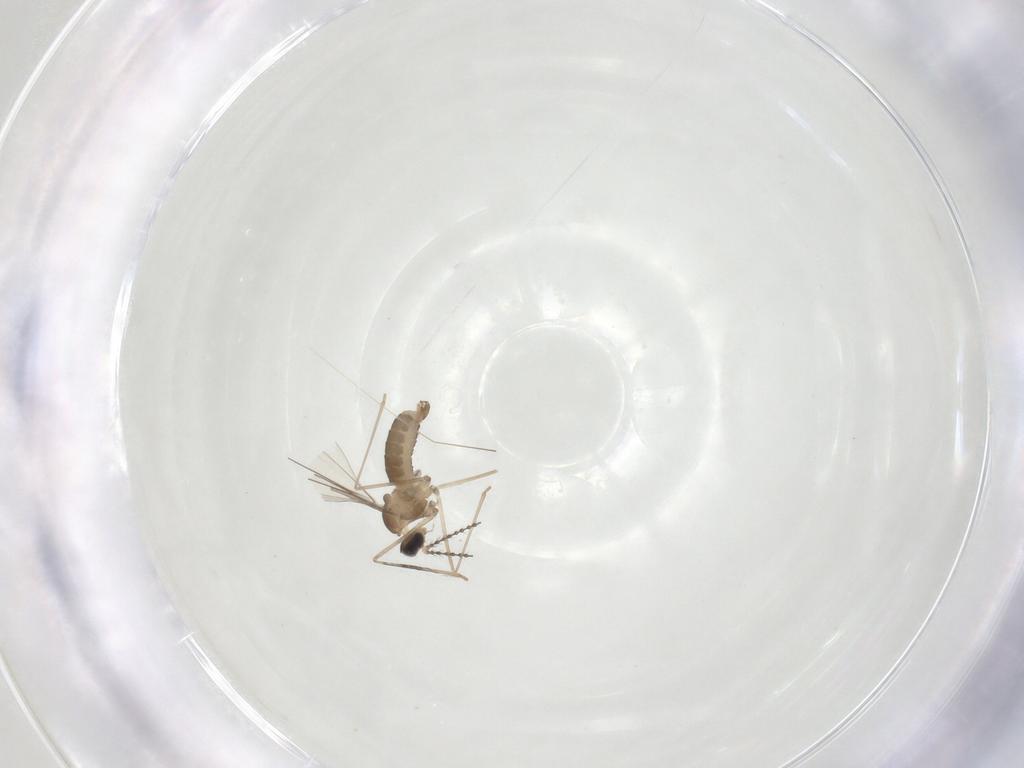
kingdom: Animalia
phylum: Arthropoda
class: Insecta
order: Diptera
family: Cecidomyiidae
